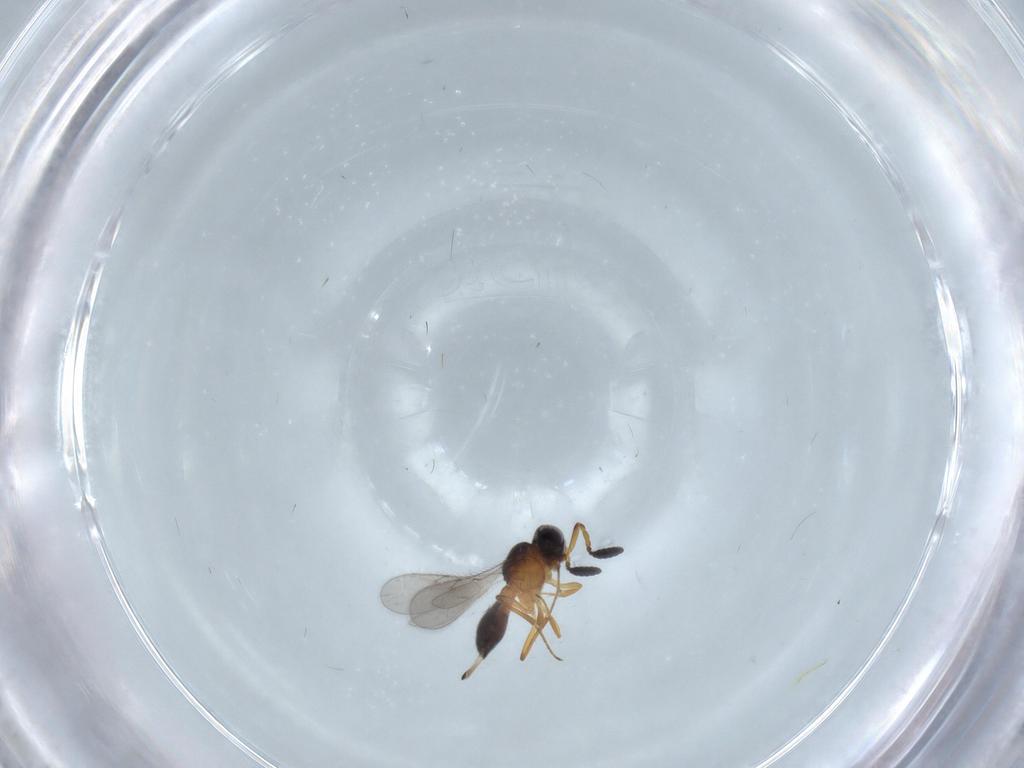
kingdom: Animalia
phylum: Arthropoda
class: Insecta
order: Hymenoptera
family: Scelionidae
